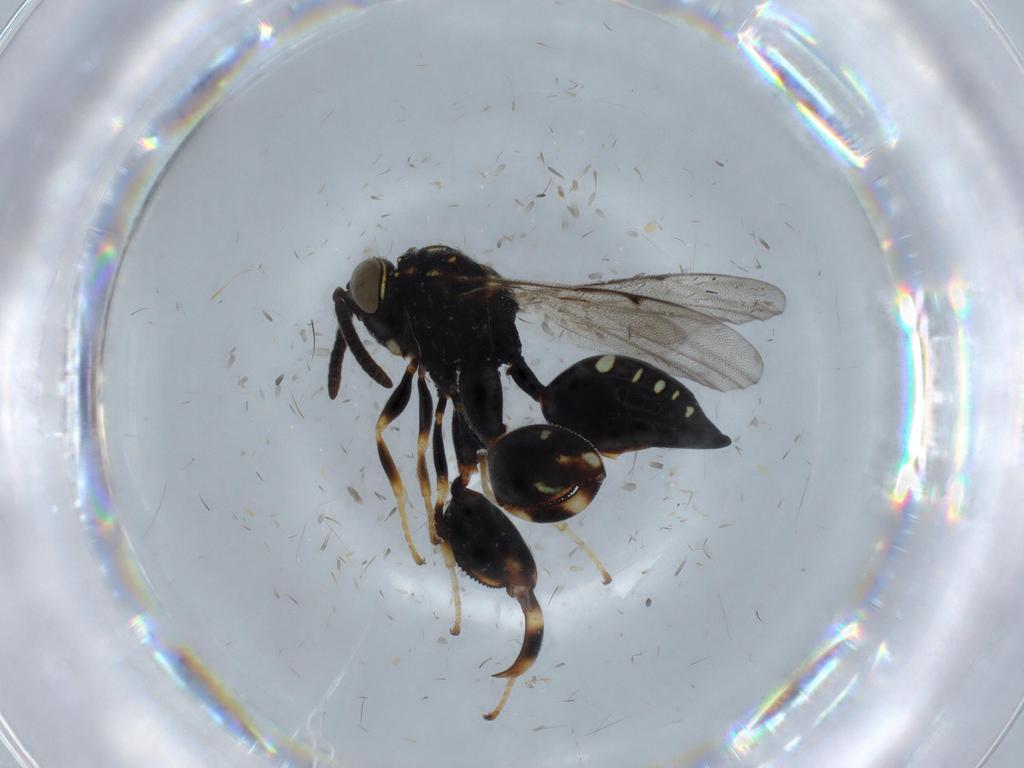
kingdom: Animalia
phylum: Arthropoda
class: Insecta
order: Hymenoptera
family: Chalcididae
